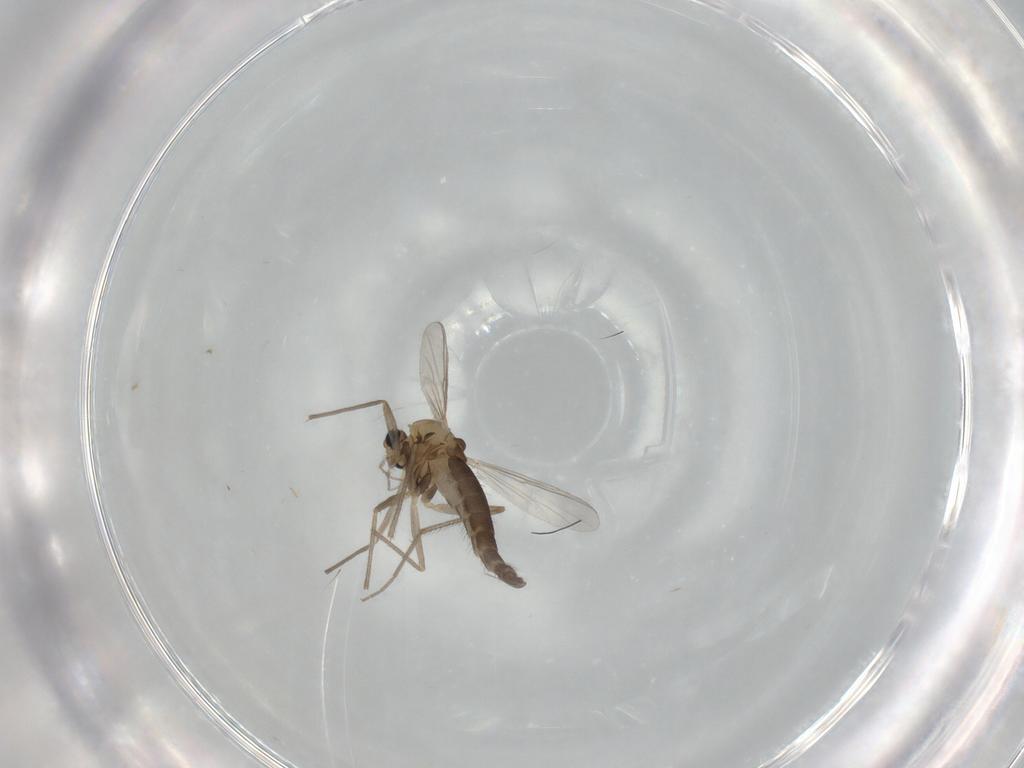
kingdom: Animalia
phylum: Arthropoda
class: Insecta
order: Diptera
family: Chironomidae
